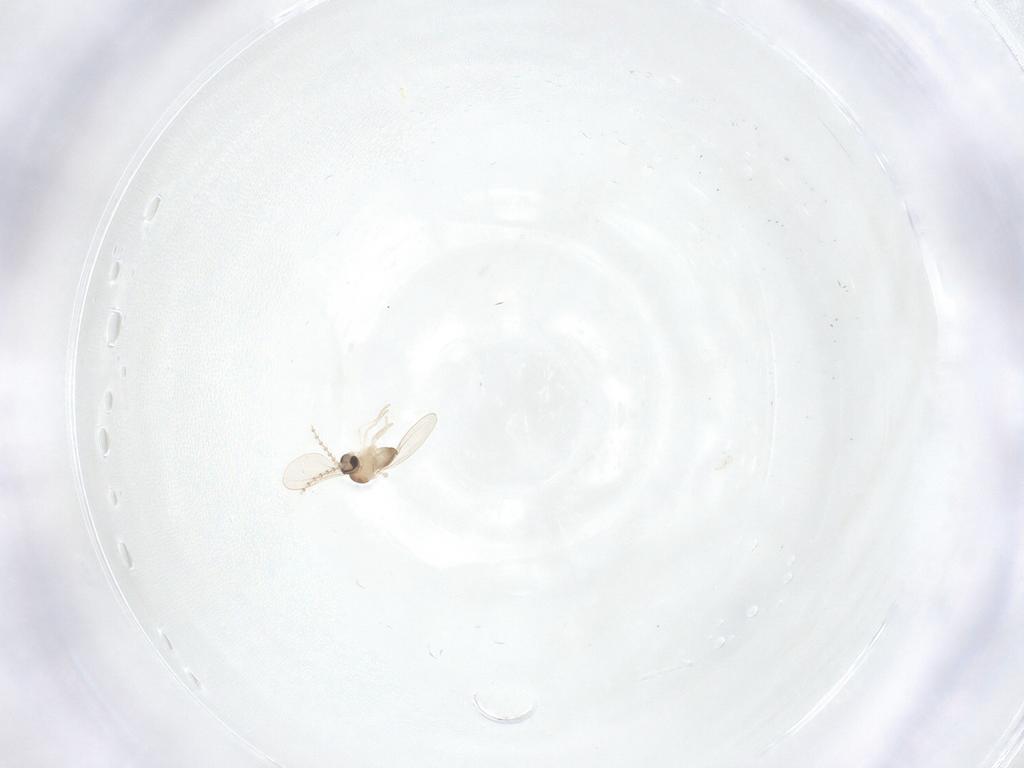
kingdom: Animalia
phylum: Arthropoda
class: Insecta
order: Diptera
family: Cecidomyiidae
